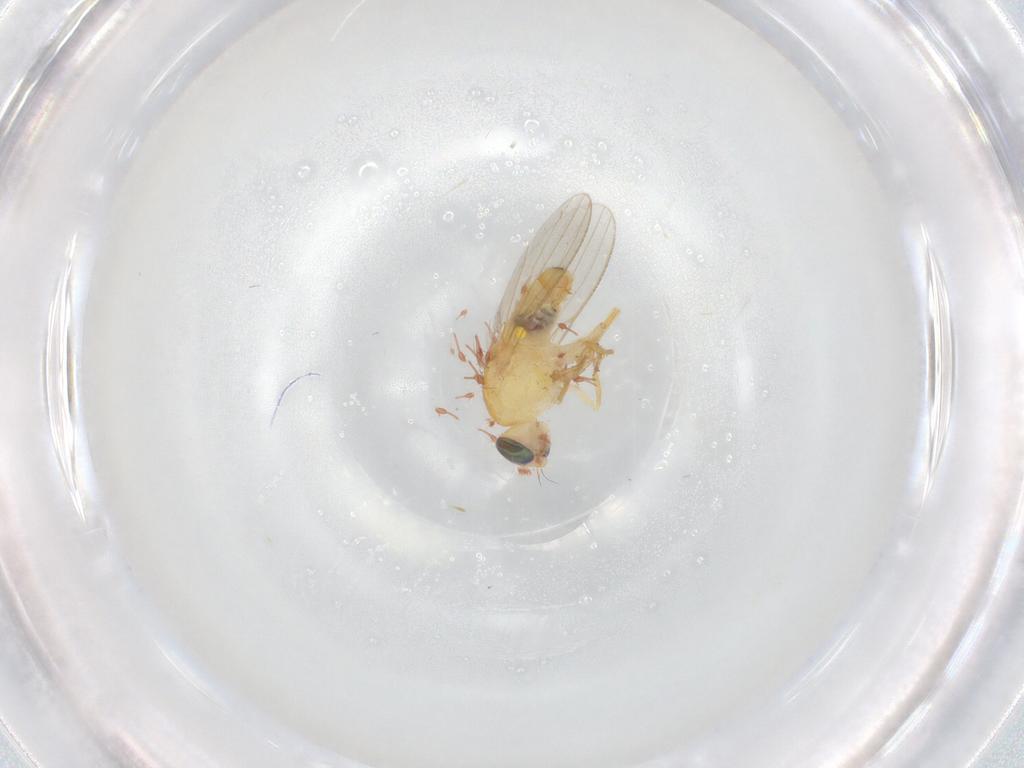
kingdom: Animalia
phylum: Arthropoda
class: Insecta
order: Diptera
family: Chyromyidae
